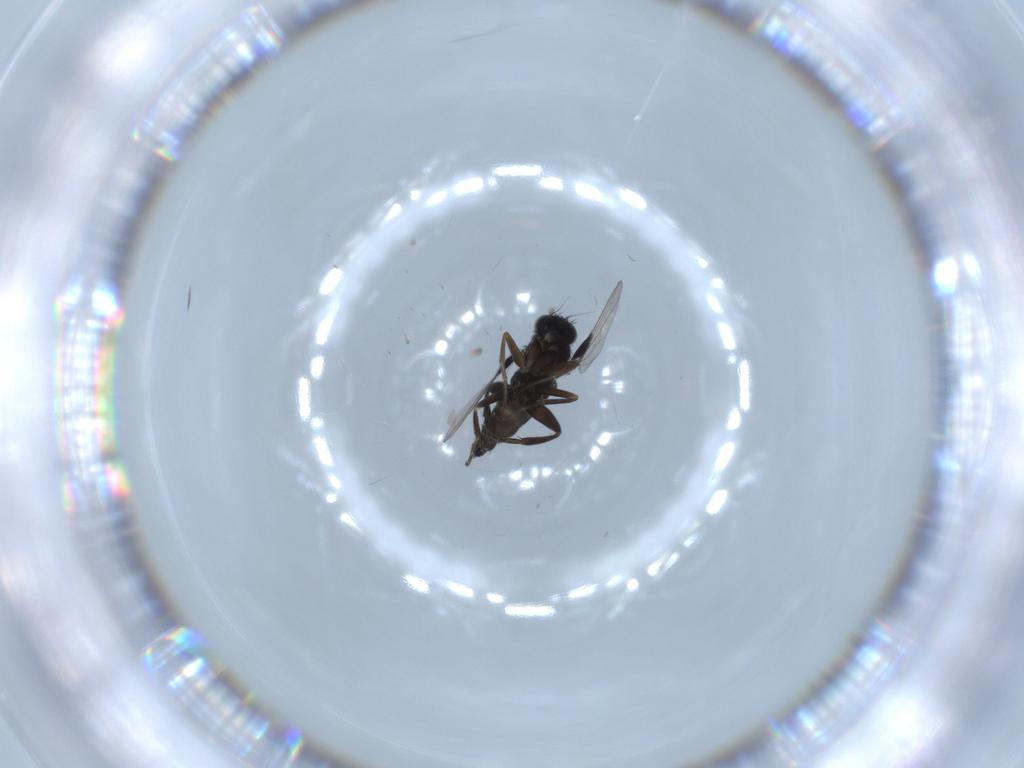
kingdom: Animalia
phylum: Arthropoda
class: Insecta
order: Diptera
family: Phoridae
